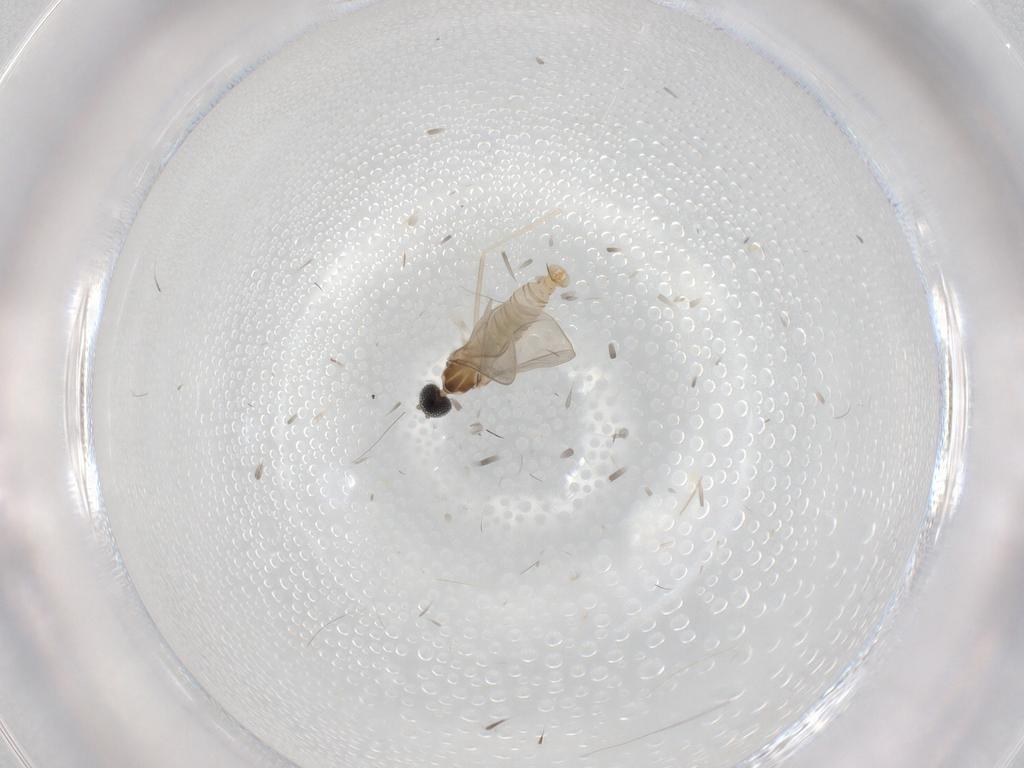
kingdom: Animalia
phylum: Arthropoda
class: Insecta
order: Diptera
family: Cecidomyiidae
